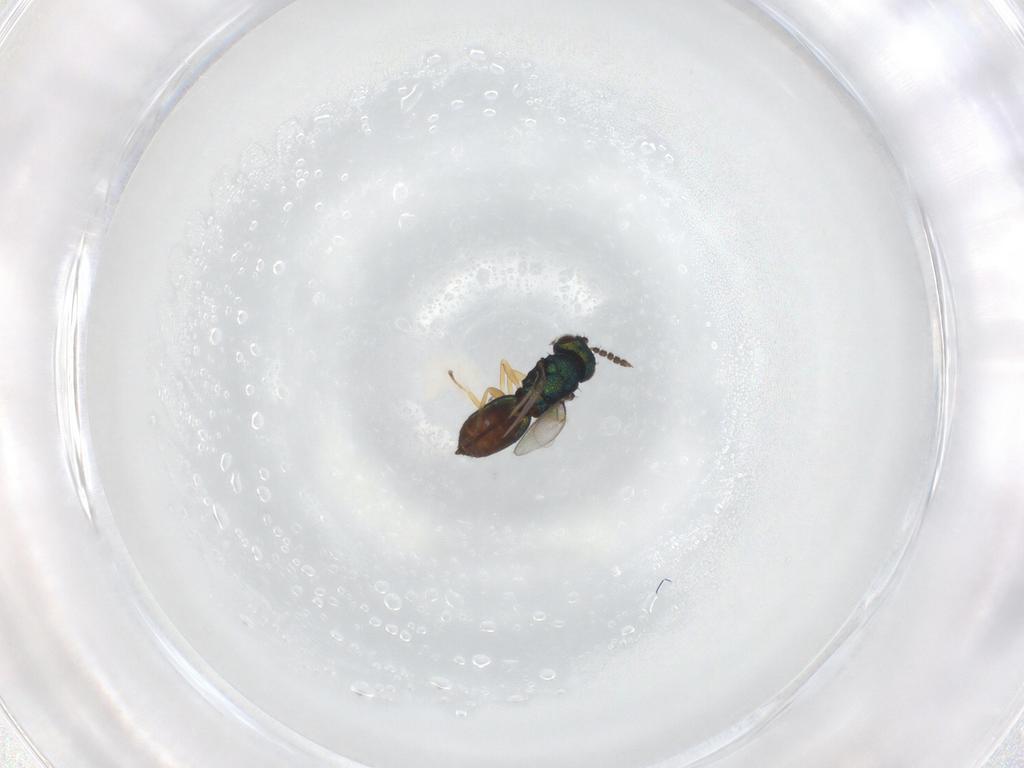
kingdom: Animalia
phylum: Arthropoda
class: Insecta
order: Hymenoptera
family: Eulophidae
